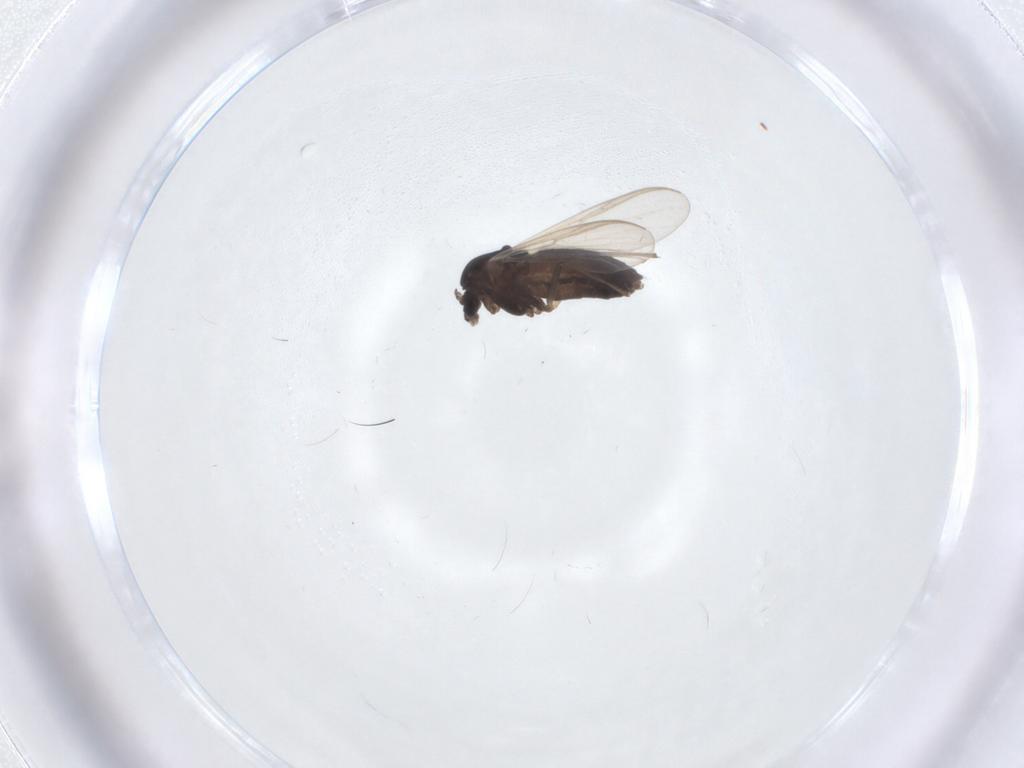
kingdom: Animalia
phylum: Arthropoda
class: Insecta
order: Diptera
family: Chironomidae
